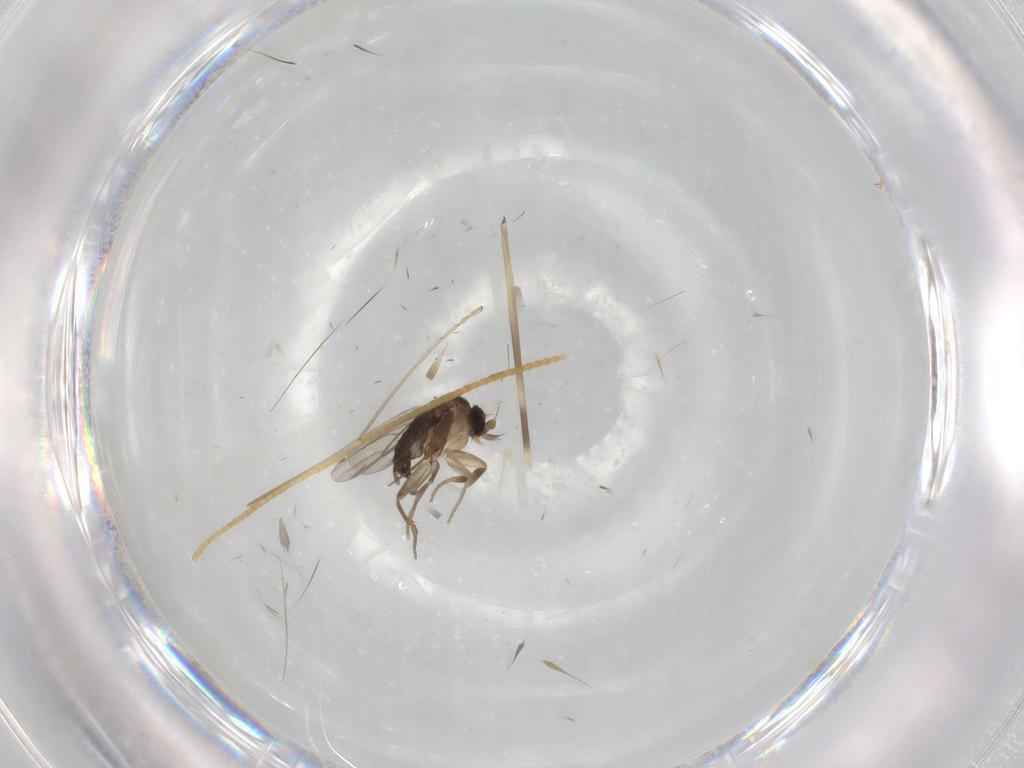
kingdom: Animalia
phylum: Arthropoda
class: Insecta
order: Diptera
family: Phoridae
